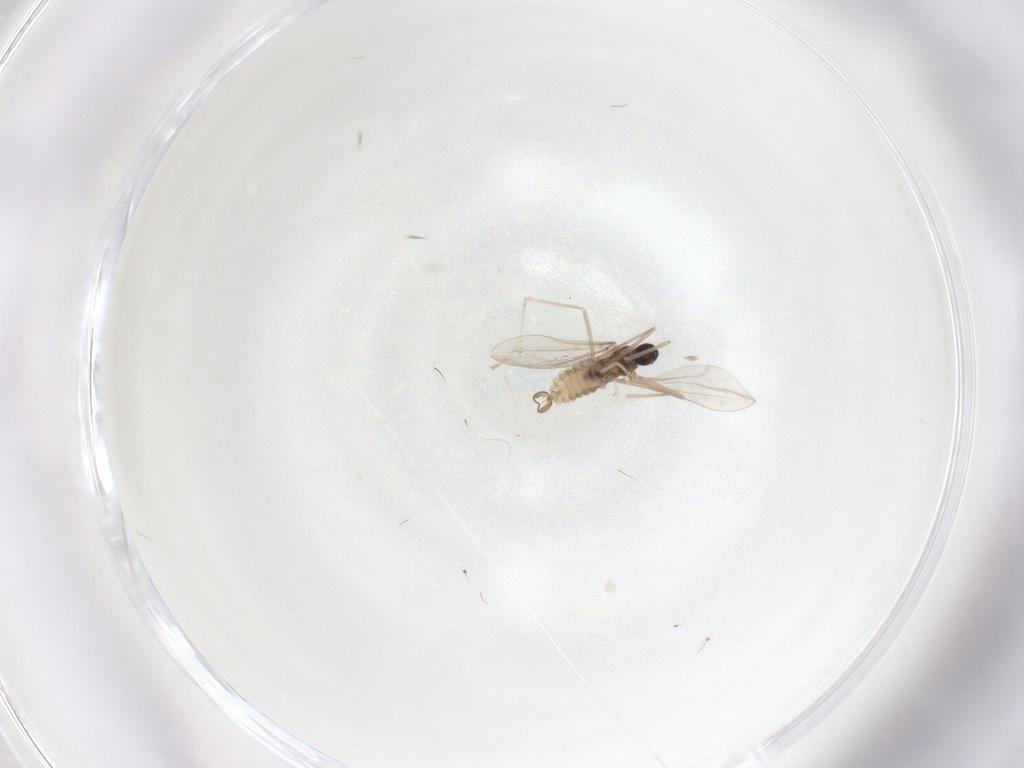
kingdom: Animalia
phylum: Arthropoda
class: Insecta
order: Diptera
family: Cecidomyiidae
